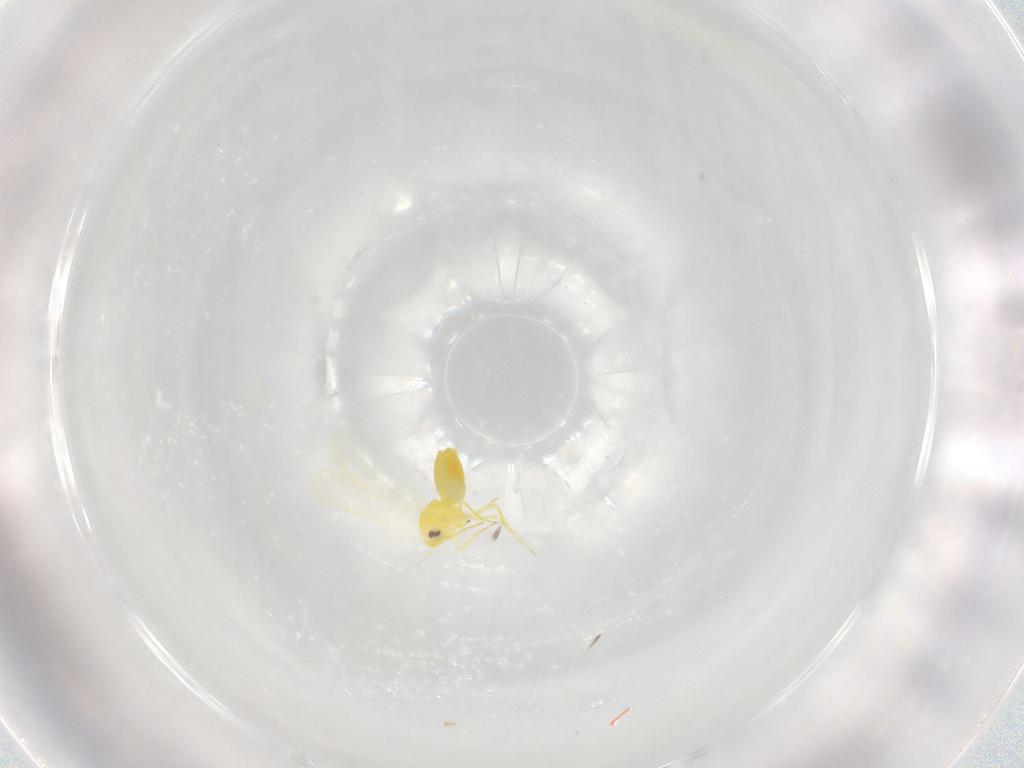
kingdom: Animalia
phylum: Arthropoda
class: Insecta
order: Hemiptera
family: Aleyrodidae
